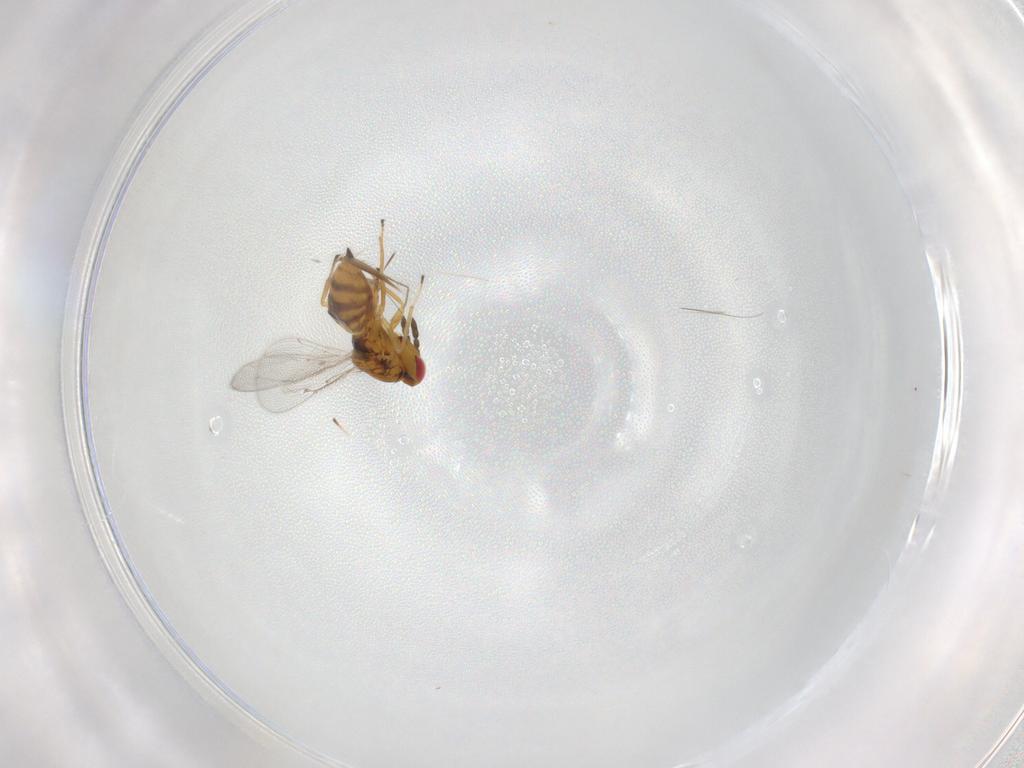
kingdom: Animalia
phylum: Arthropoda
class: Insecta
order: Hymenoptera
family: Eulophidae
